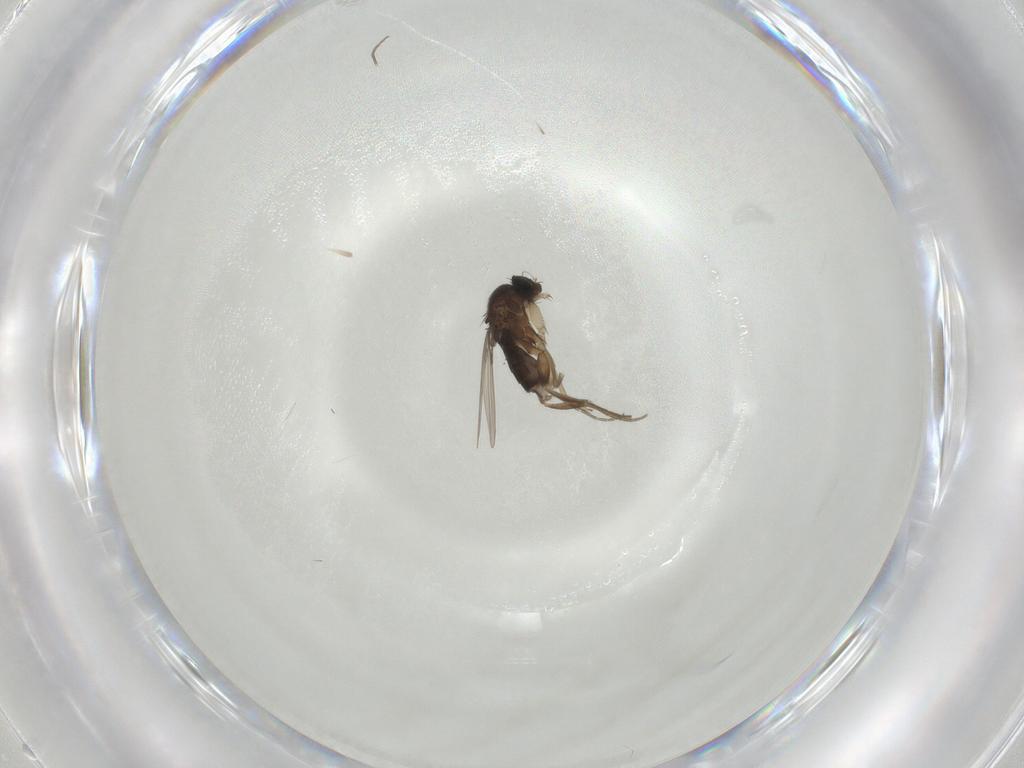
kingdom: Animalia
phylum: Arthropoda
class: Insecta
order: Diptera
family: Phoridae
